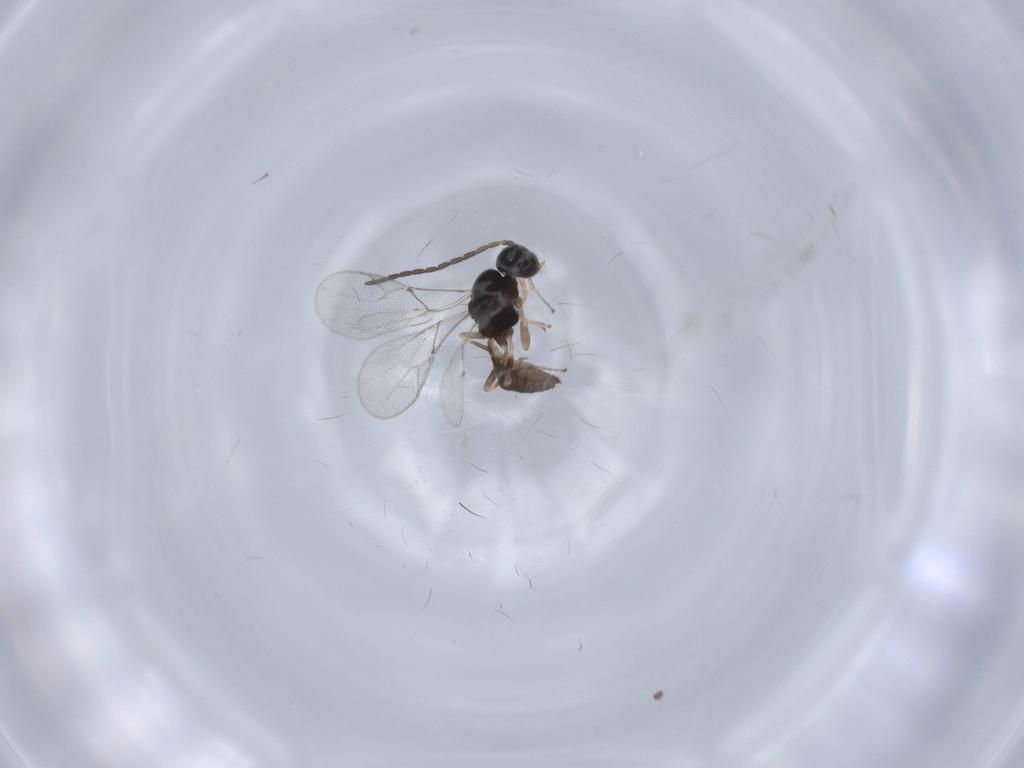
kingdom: Animalia
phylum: Arthropoda
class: Insecta
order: Hymenoptera
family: Braconidae
